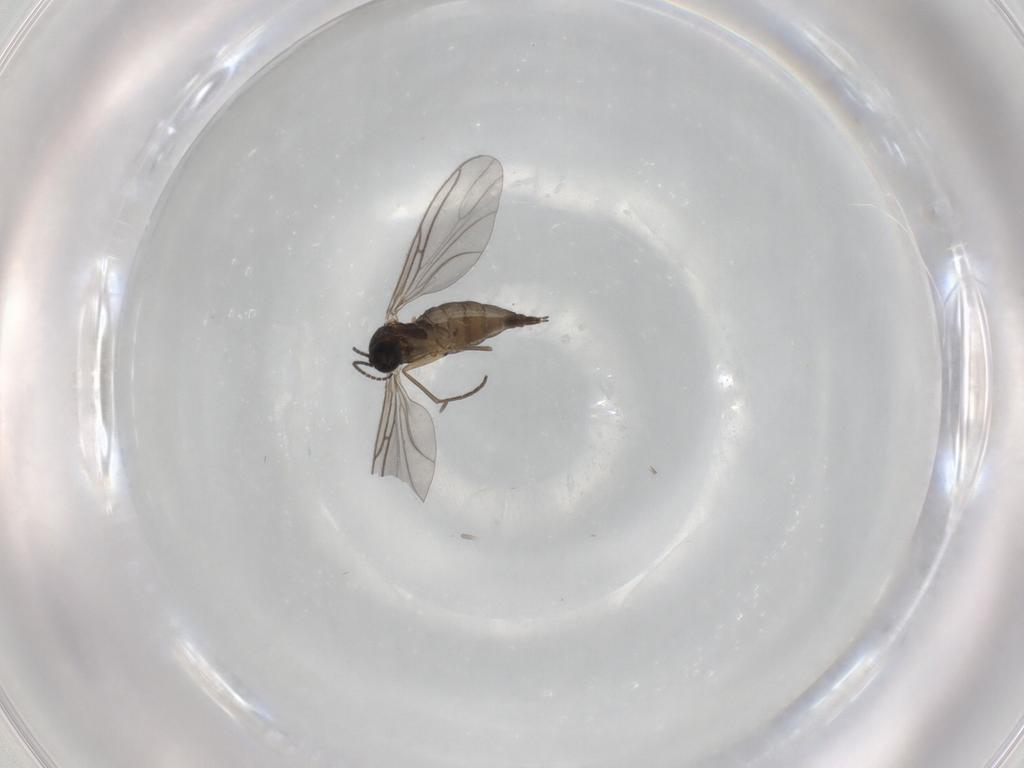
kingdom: Animalia
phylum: Arthropoda
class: Insecta
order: Diptera
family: Sciaridae
